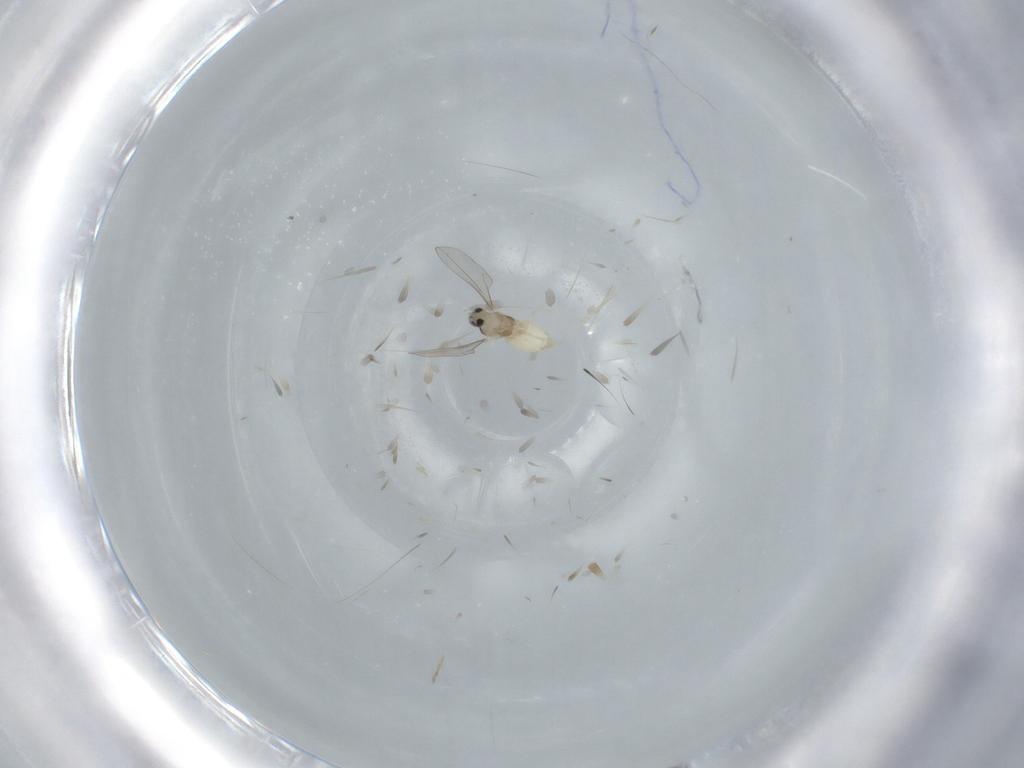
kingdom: Animalia
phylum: Arthropoda
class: Insecta
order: Diptera
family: Cecidomyiidae
